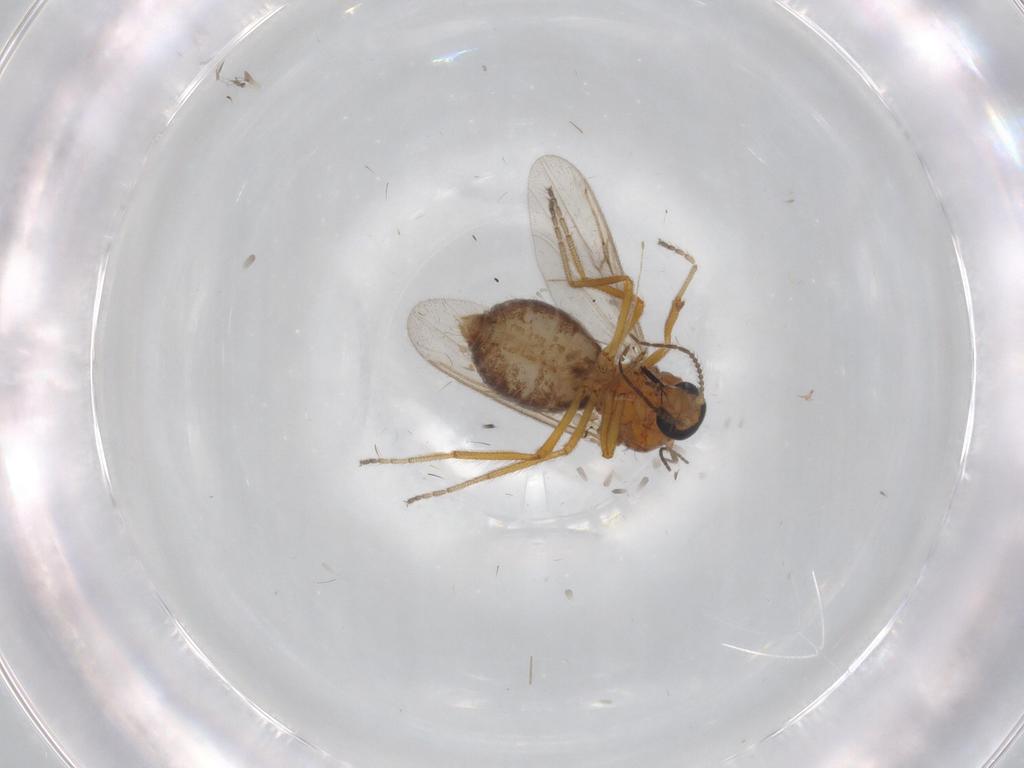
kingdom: Animalia
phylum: Arthropoda
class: Insecta
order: Diptera
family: Ceratopogonidae
